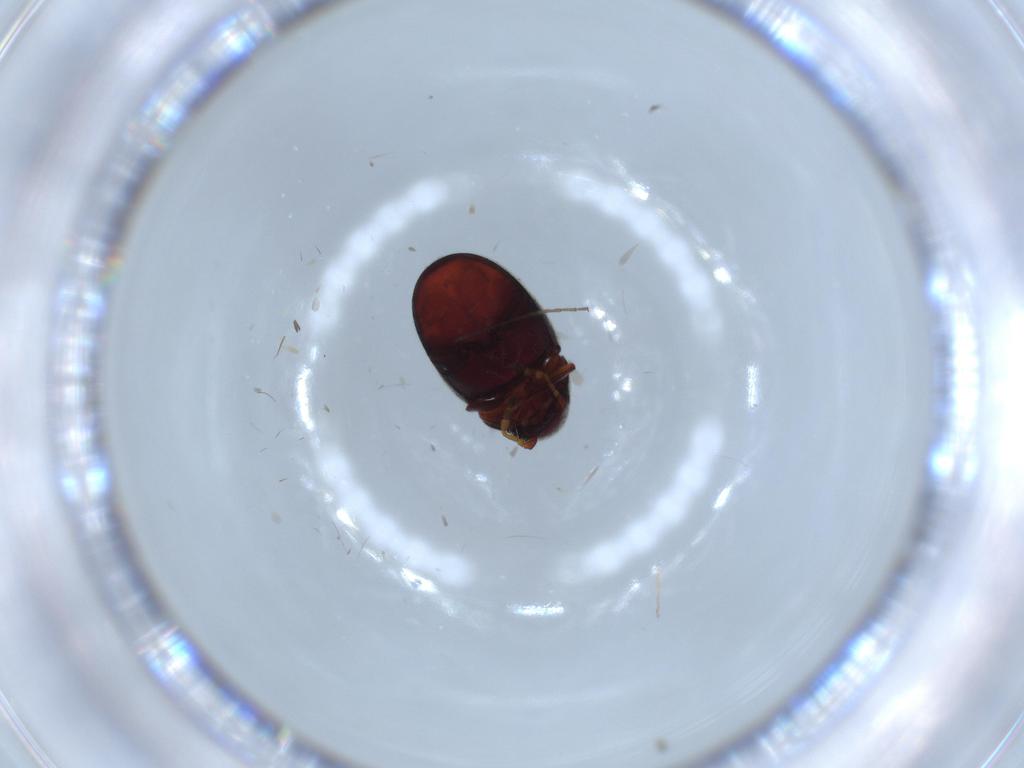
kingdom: Animalia
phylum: Arthropoda
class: Insecta
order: Coleoptera
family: Ptinidae
